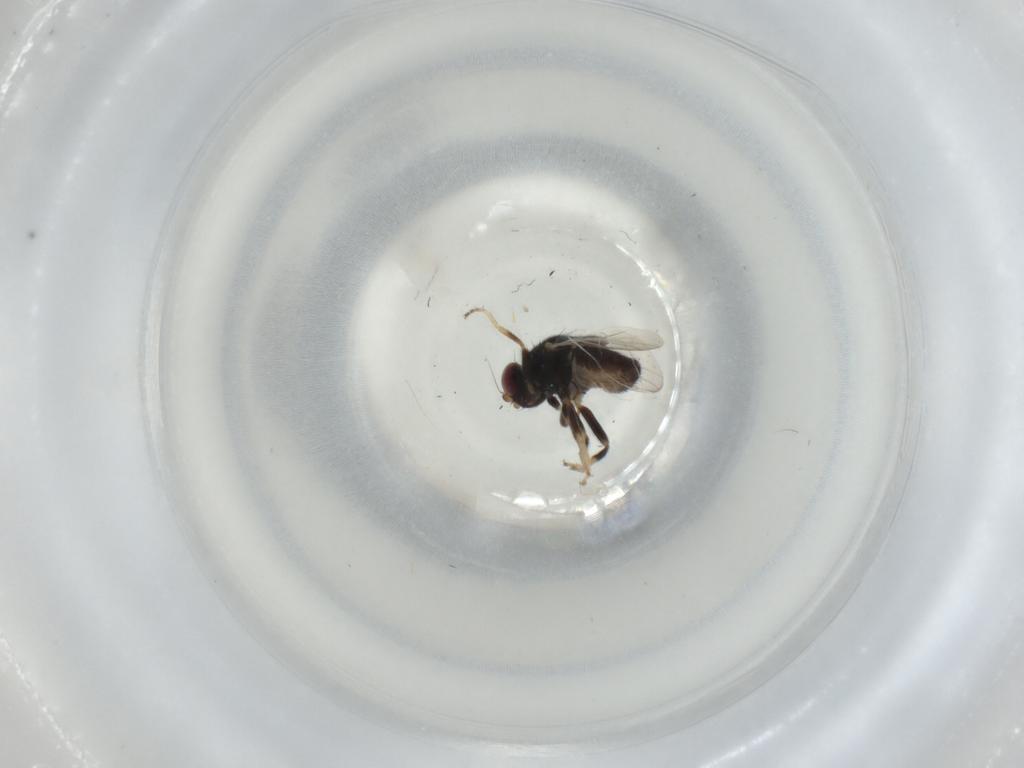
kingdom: Animalia
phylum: Arthropoda
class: Insecta
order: Diptera
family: Chloropidae
